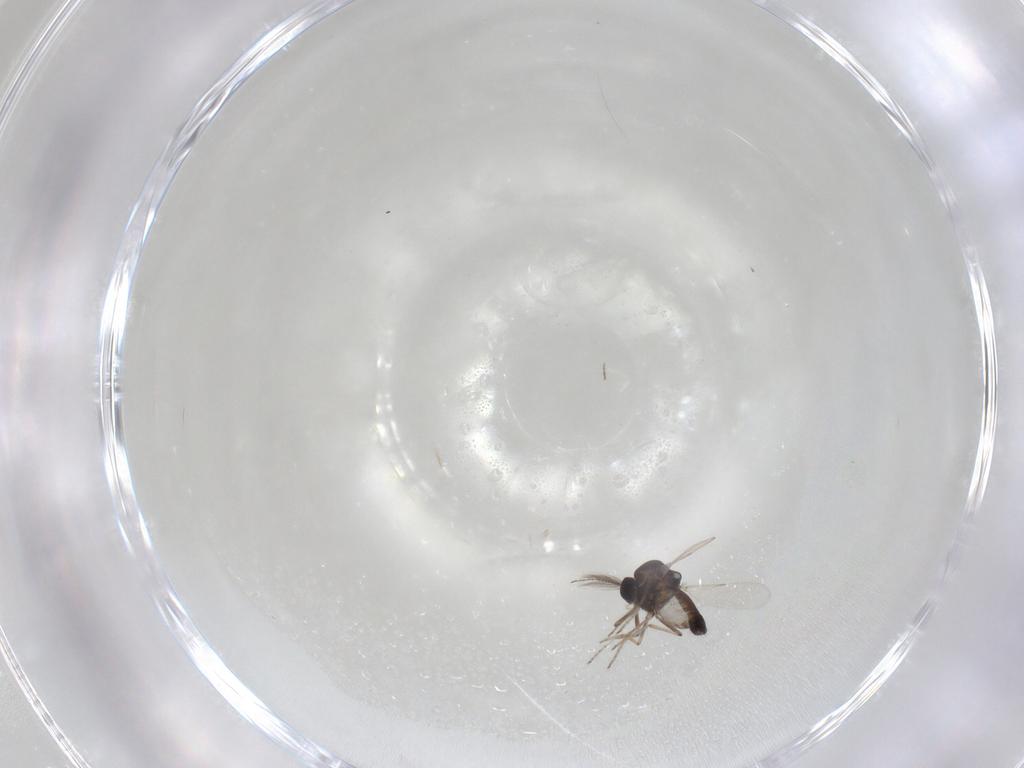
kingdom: Animalia
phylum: Arthropoda
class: Insecta
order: Diptera
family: Ceratopogonidae
